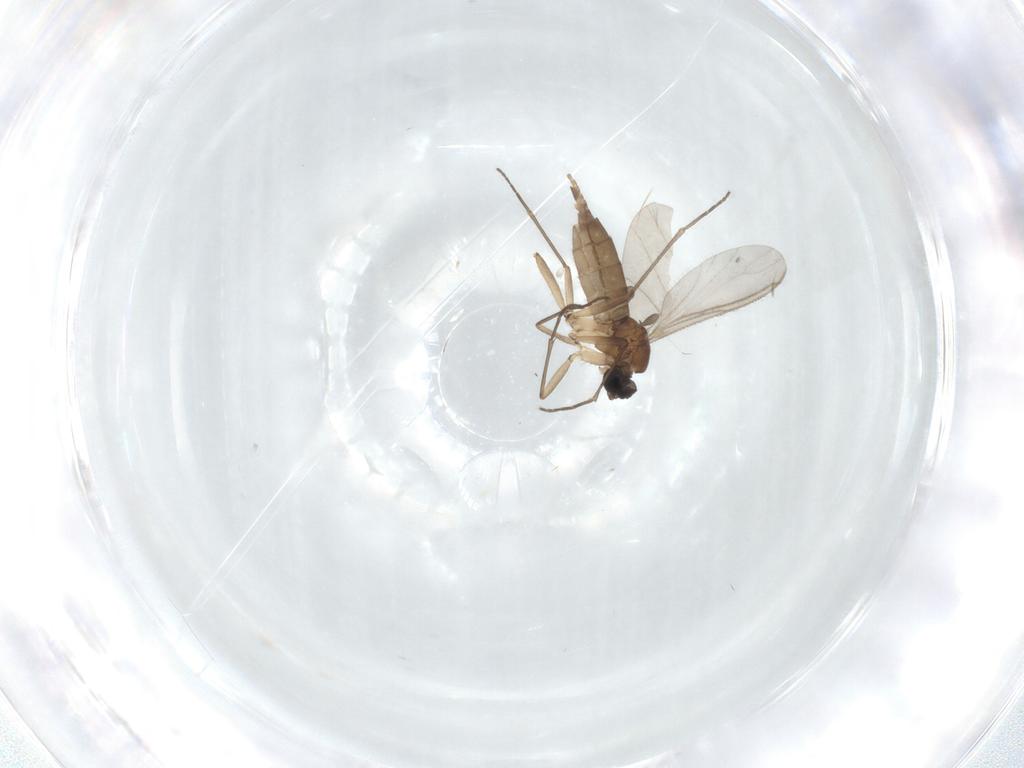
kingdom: Animalia
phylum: Arthropoda
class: Insecta
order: Diptera
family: Sciaridae
